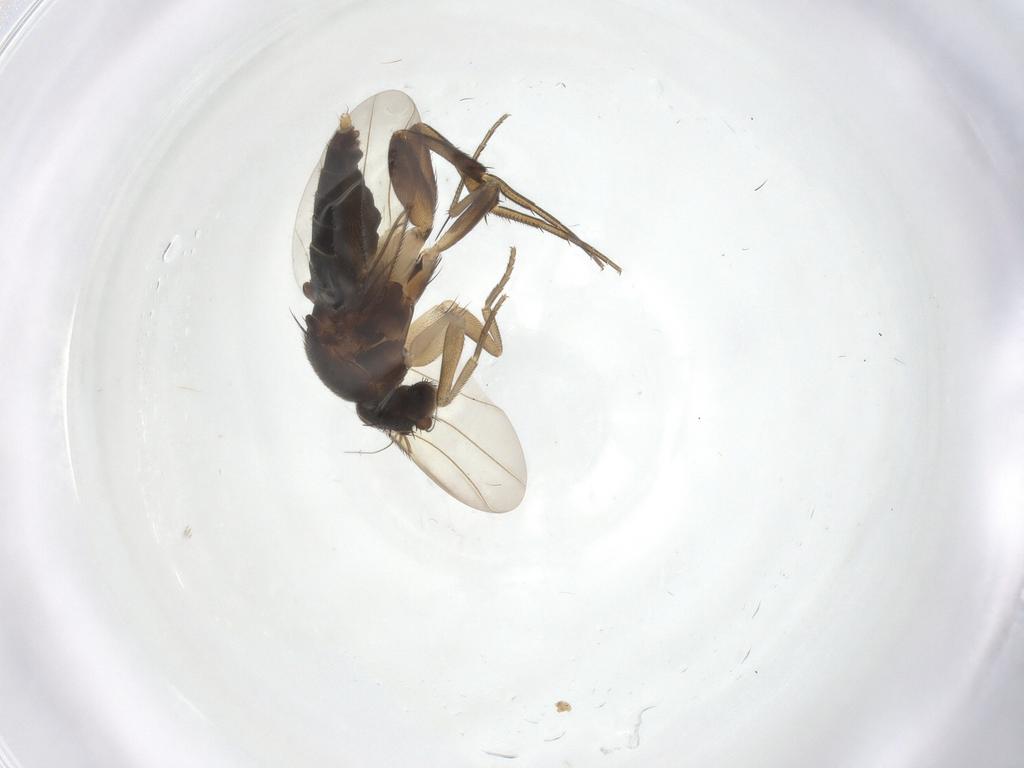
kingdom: Animalia
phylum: Arthropoda
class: Insecta
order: Diptera
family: Phoridae
